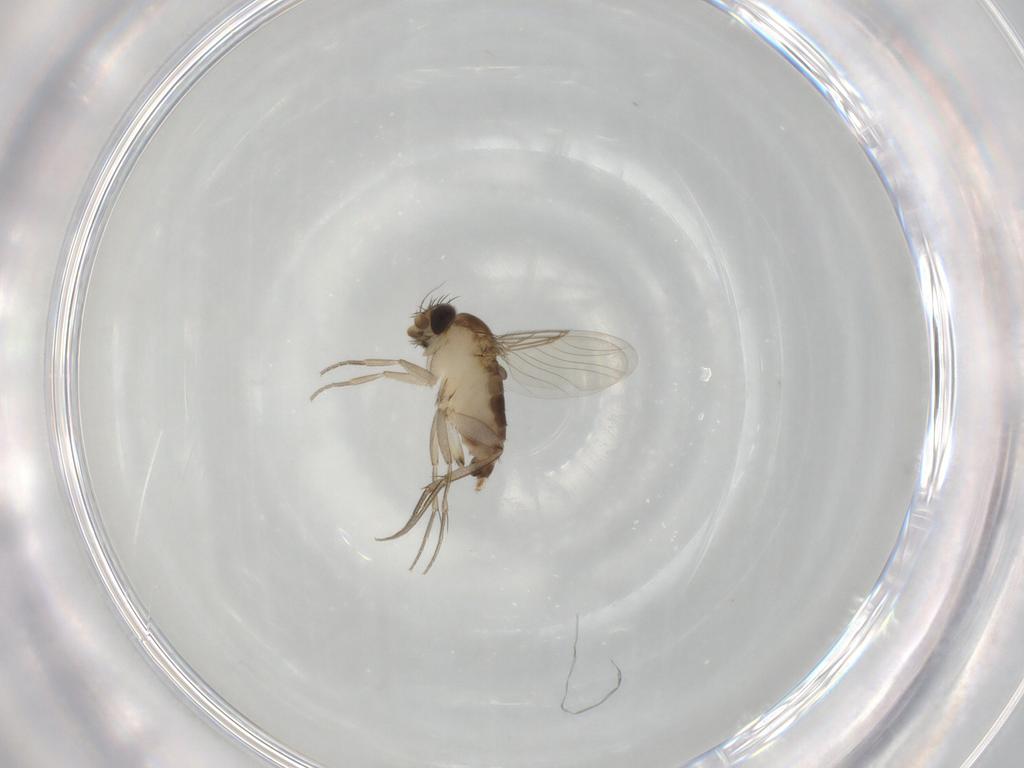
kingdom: Animalia
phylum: Arthropoda
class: Insecta
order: Diptera
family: Phoridae
